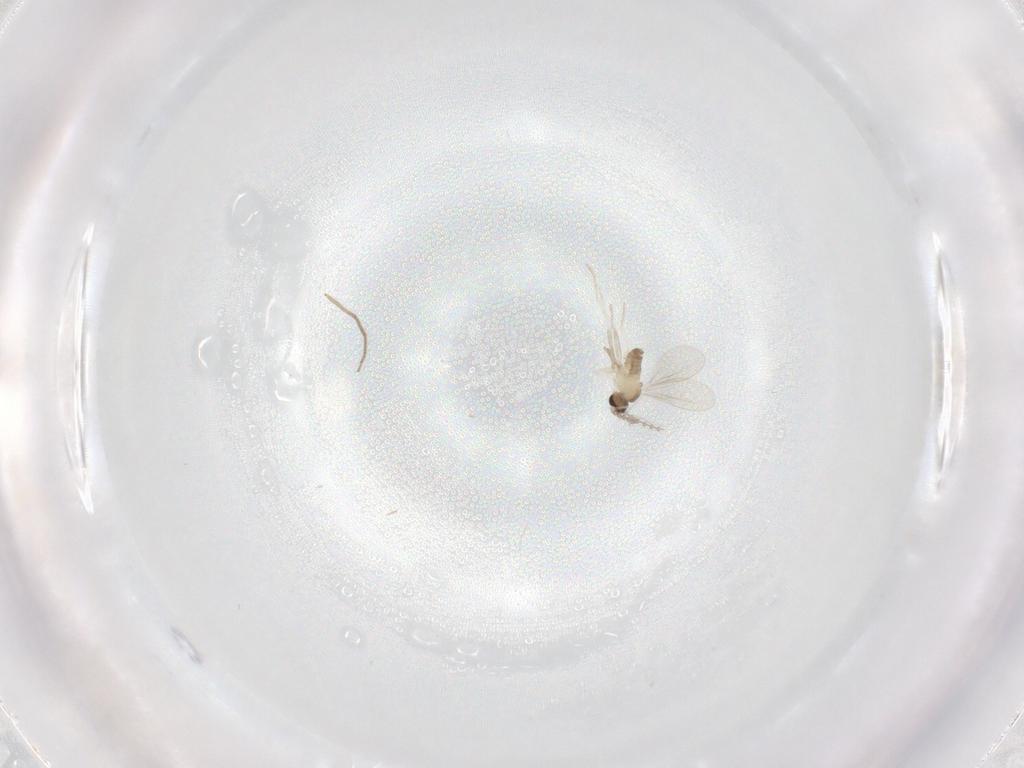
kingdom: Animalia
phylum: Arthropoda
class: Insecta
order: Diptera
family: Cecidomyiidae
